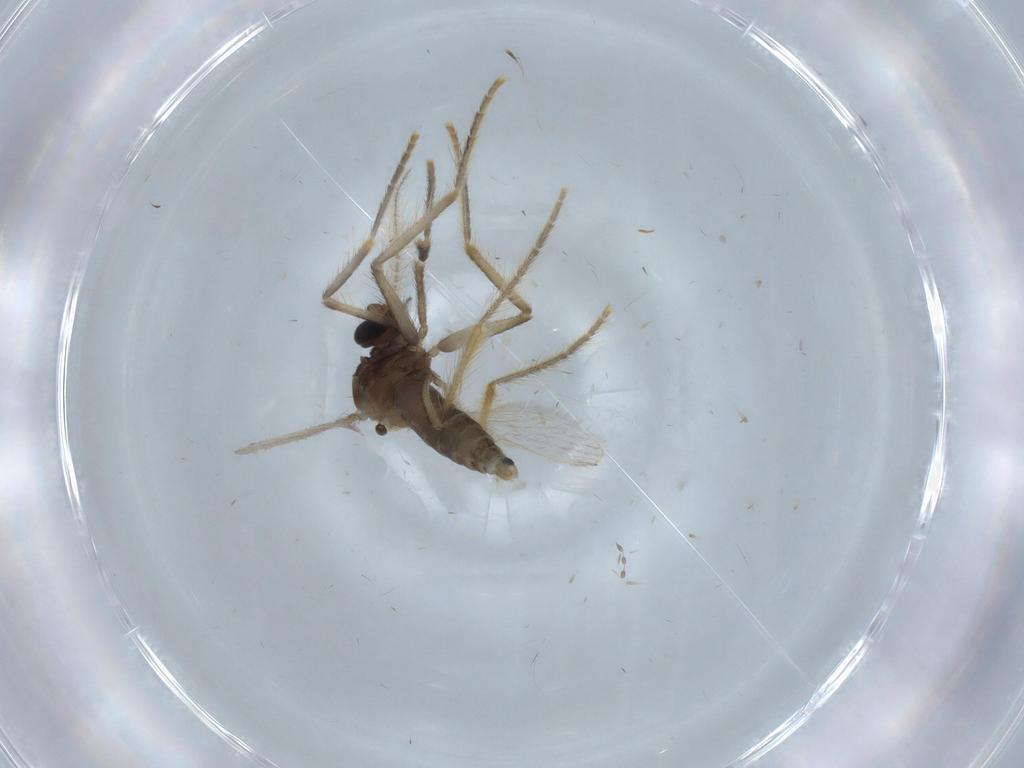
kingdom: Animalia
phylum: Arthropoda
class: Insecta
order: Diptera
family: Corethrellidae
